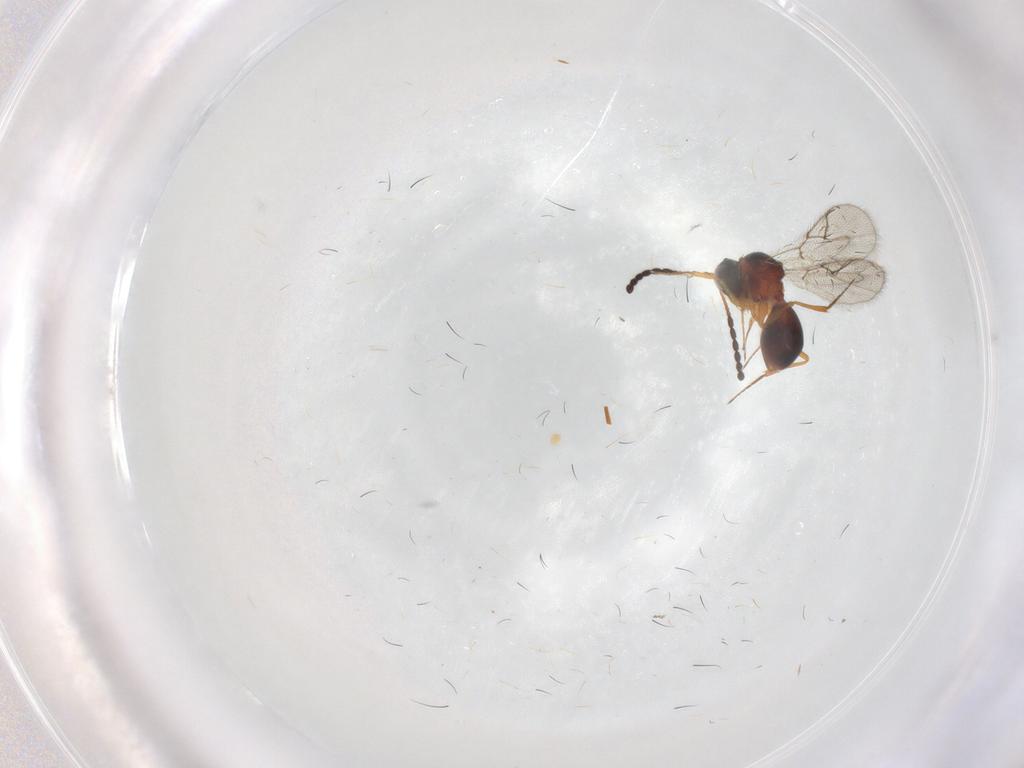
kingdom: Animalia
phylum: Arthropoda
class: Insecta
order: Hymenoptera
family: Figitidae
